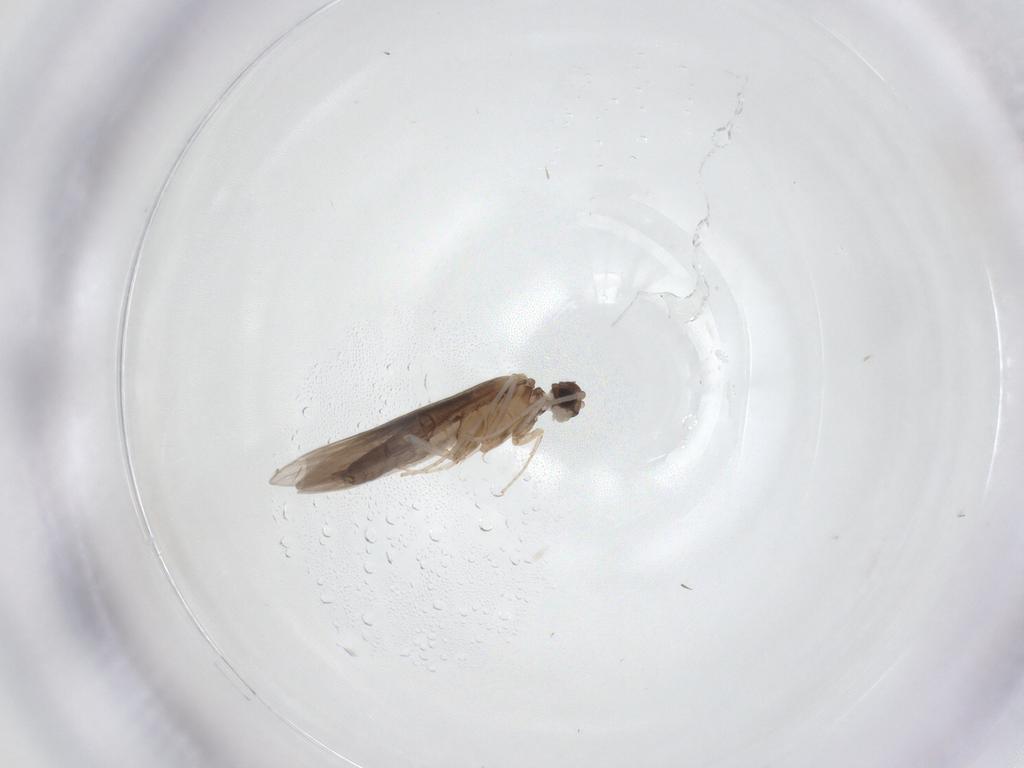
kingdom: Animalia
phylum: Arthropoda
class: Insecta
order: Trichoptera
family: Xiphocentronidae
